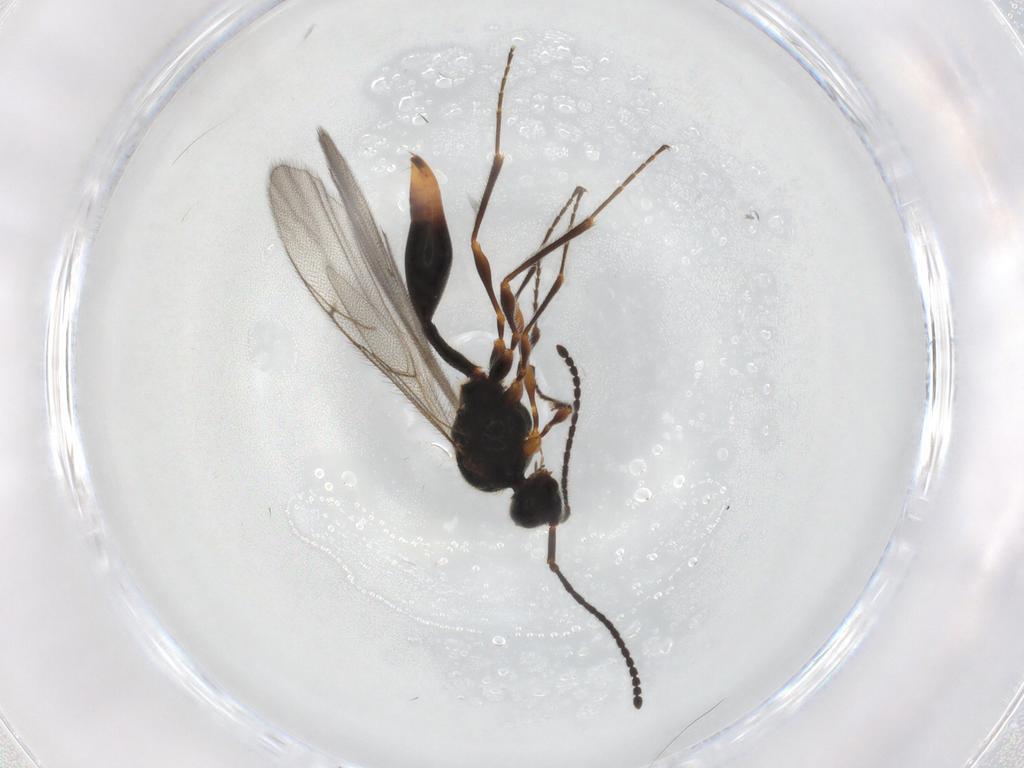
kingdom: Animalia
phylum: Arthropoda
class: Insecta
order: Hymenoptera
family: Diapriidae
